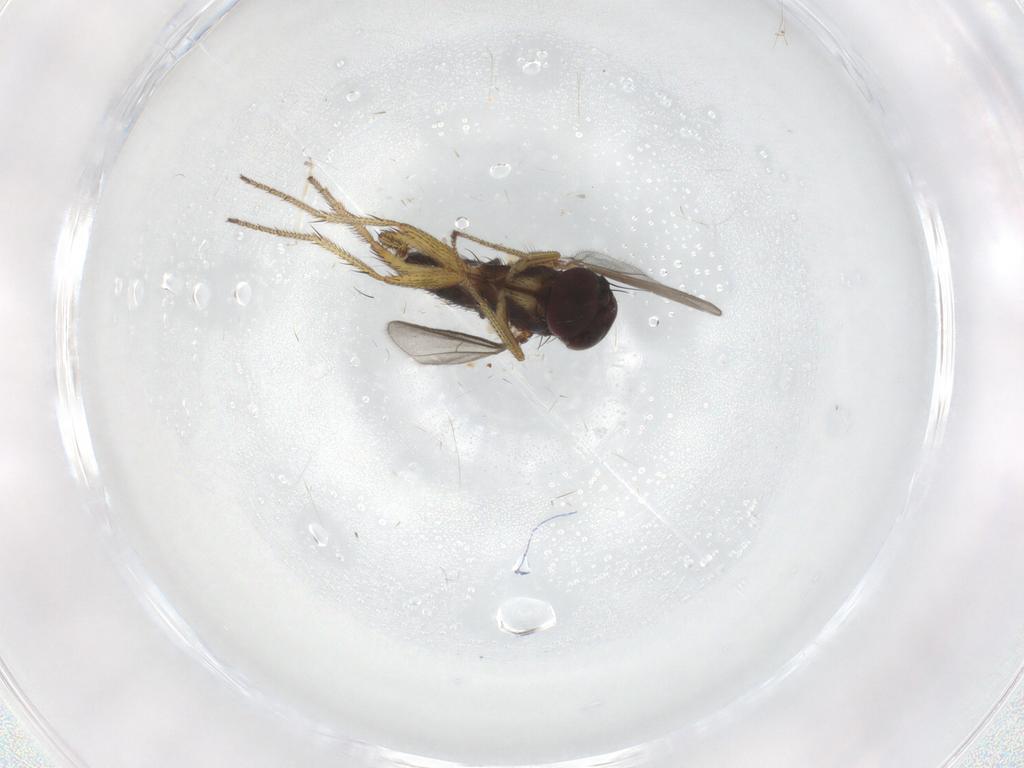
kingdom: Animalia
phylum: Arthropoda
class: Insecta
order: Diptera
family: Dolichopodidae
